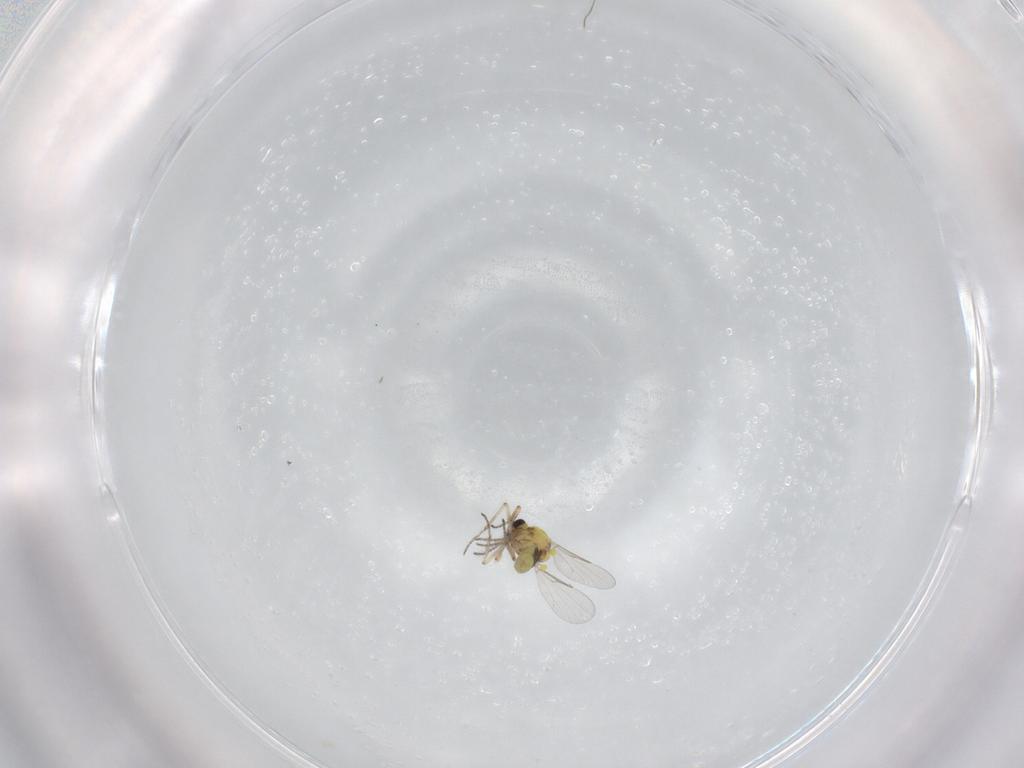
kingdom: Animalia
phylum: Arthropoda
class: Insecta
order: Diptera
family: Ceratopogonidae
